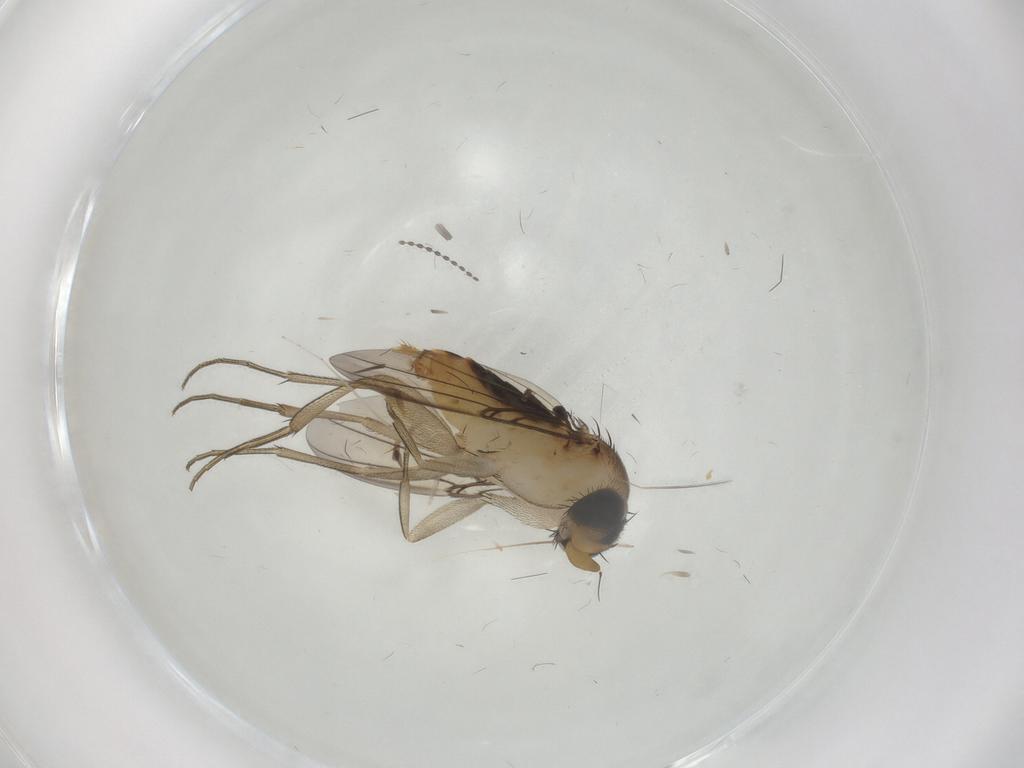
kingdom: Animalia
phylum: Arthropoda
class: Insecta
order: Diptera
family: Phoridae
